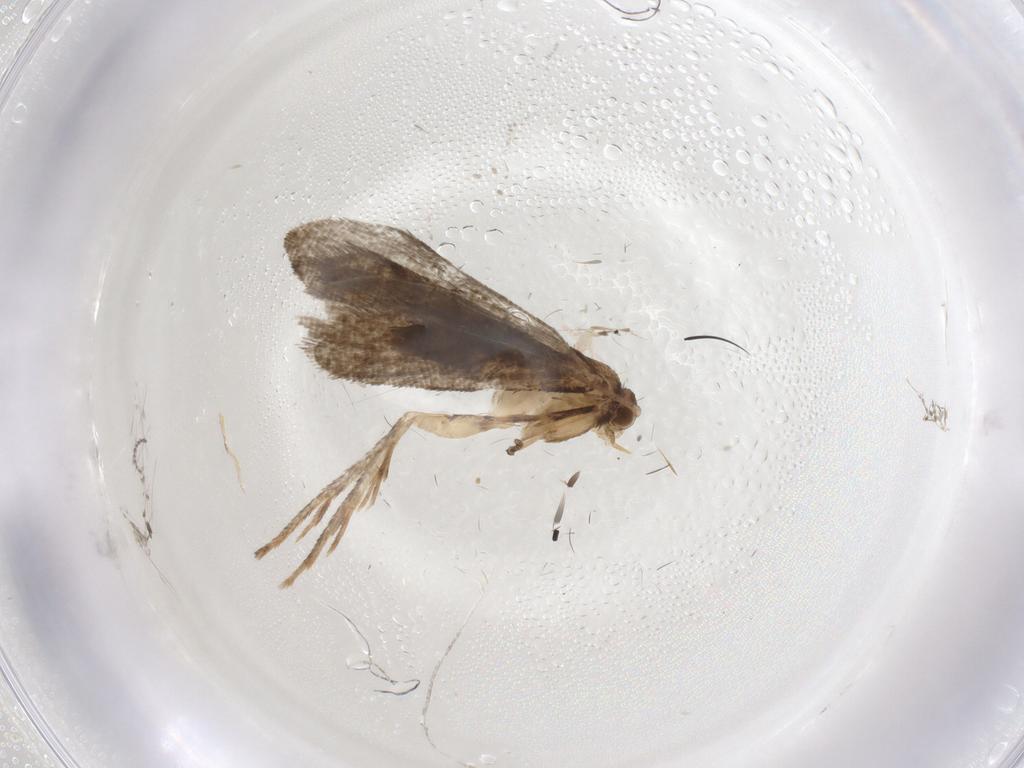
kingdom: Animalia
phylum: Arthropoda
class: Insecta
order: Lepidoptera
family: Tineidae
